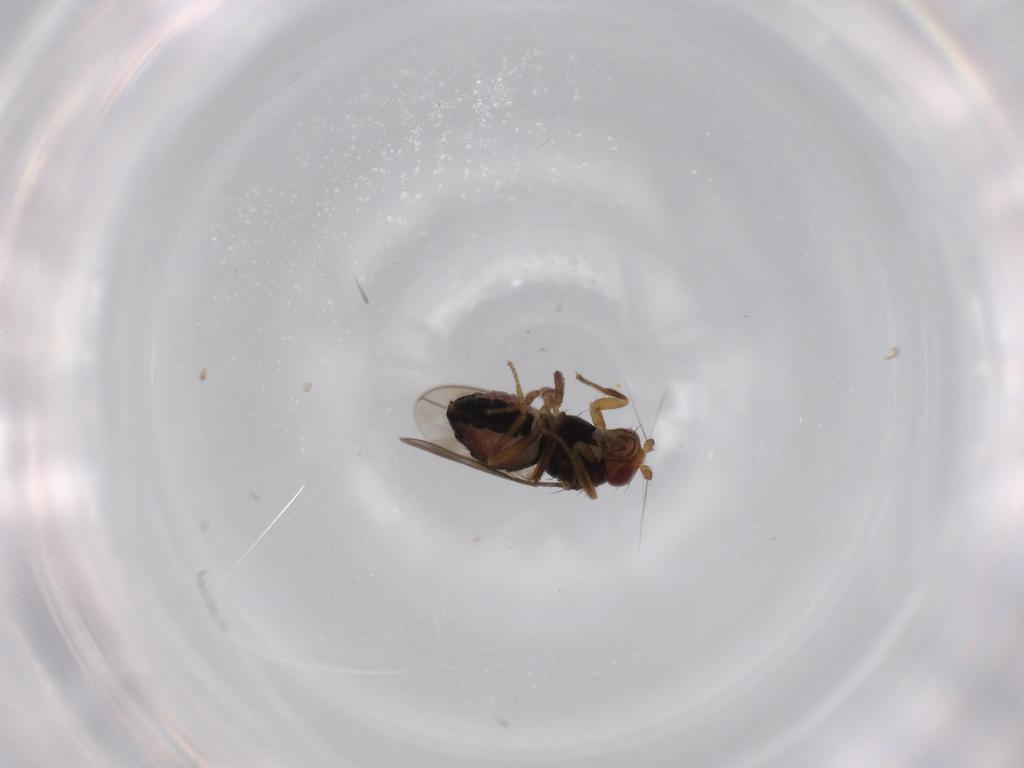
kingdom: Animalia
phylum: Arthropoda
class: Insecta
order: Diptera
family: Sphaeroceridae
